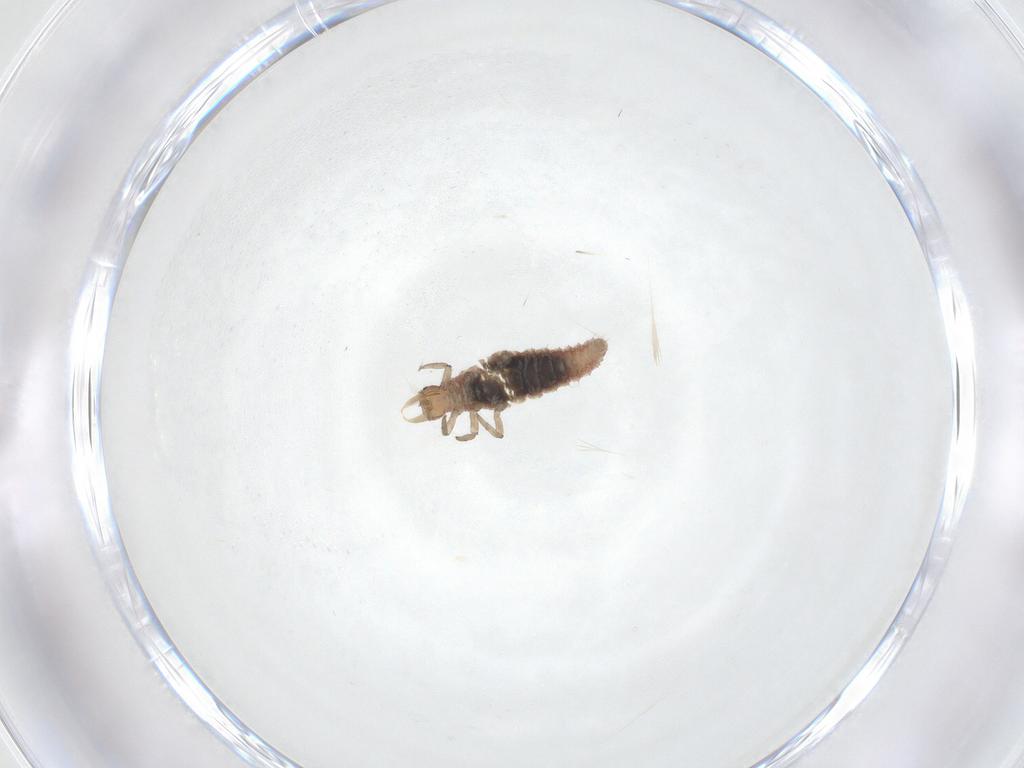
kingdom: Animalia
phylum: Arthropoda
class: Insecta
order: Neuroptera
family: Hemerobiidae
